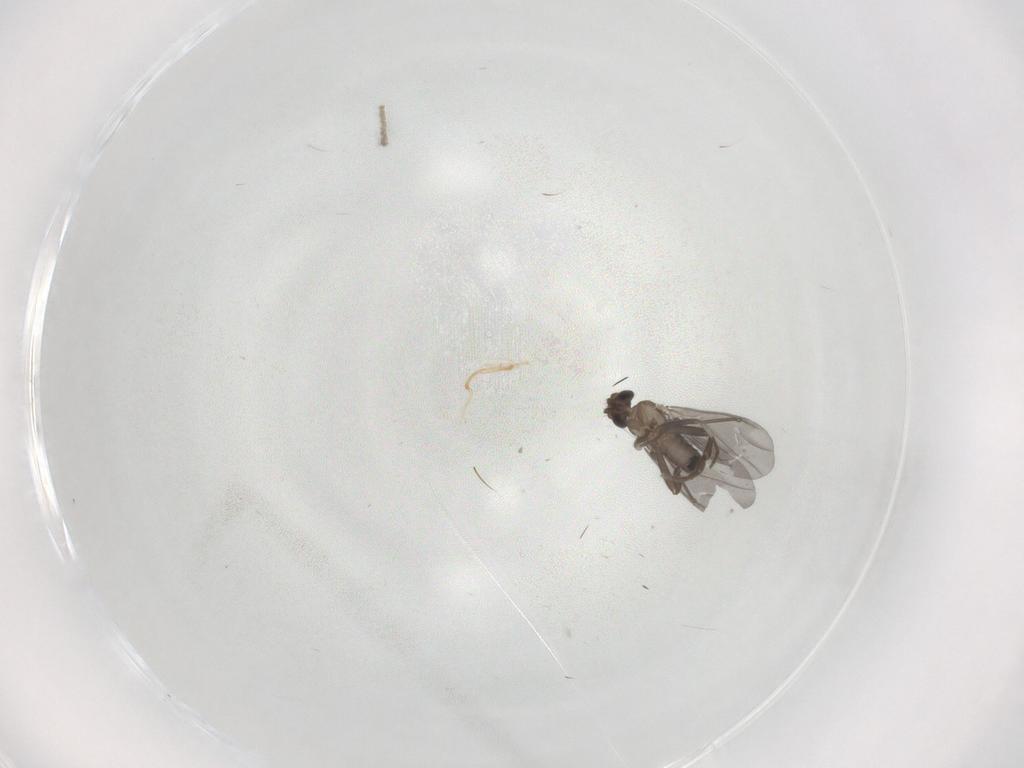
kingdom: Animalia
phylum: Arthropoda
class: Insecta
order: Diptera
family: Phoridae
